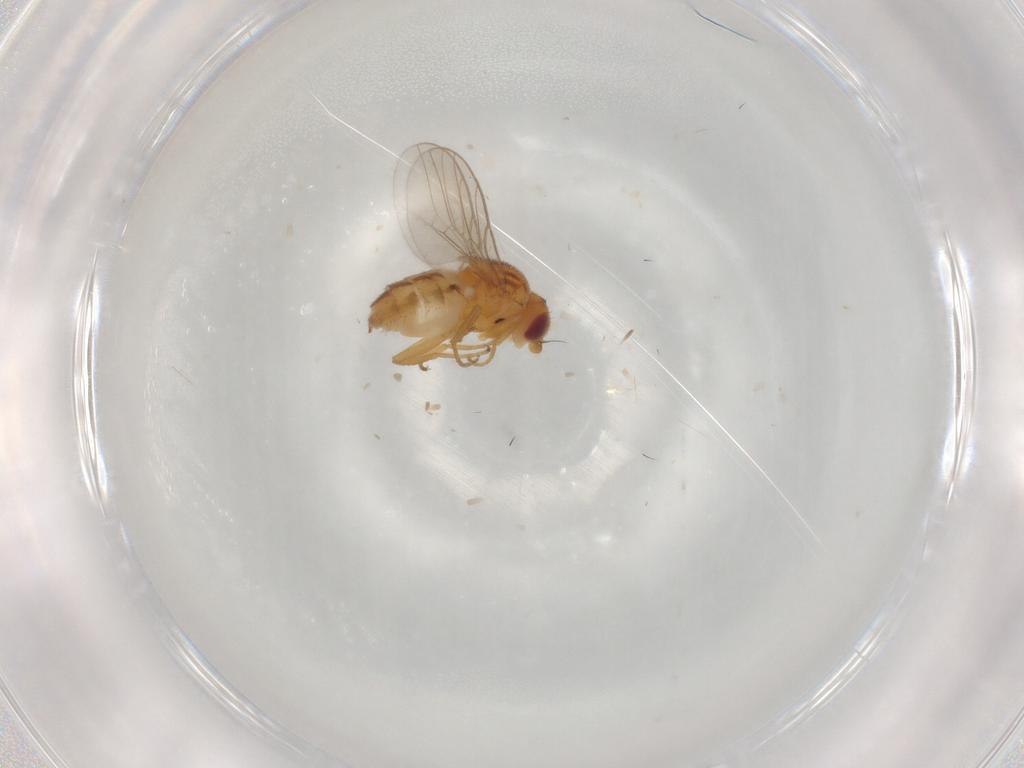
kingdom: Animalia
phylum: Arthropoda
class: Insecta
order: Diptera
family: Chloropidae
